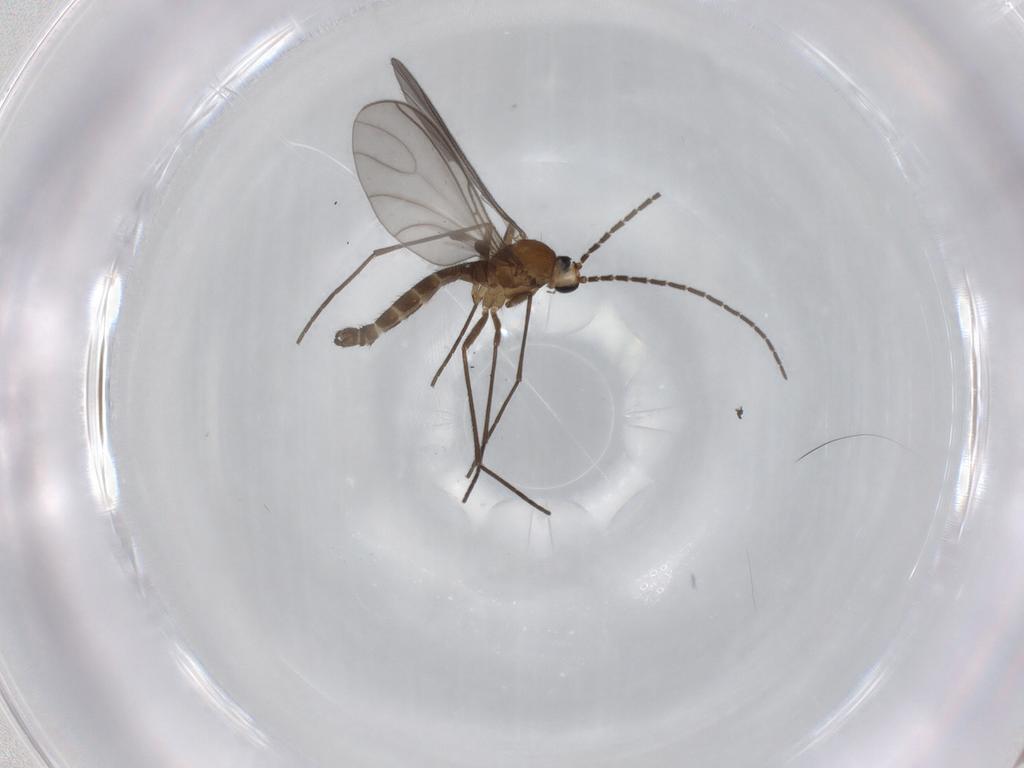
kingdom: Animalia
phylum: Arthropoda
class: Insecta
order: Diptera
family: Sciaridae
